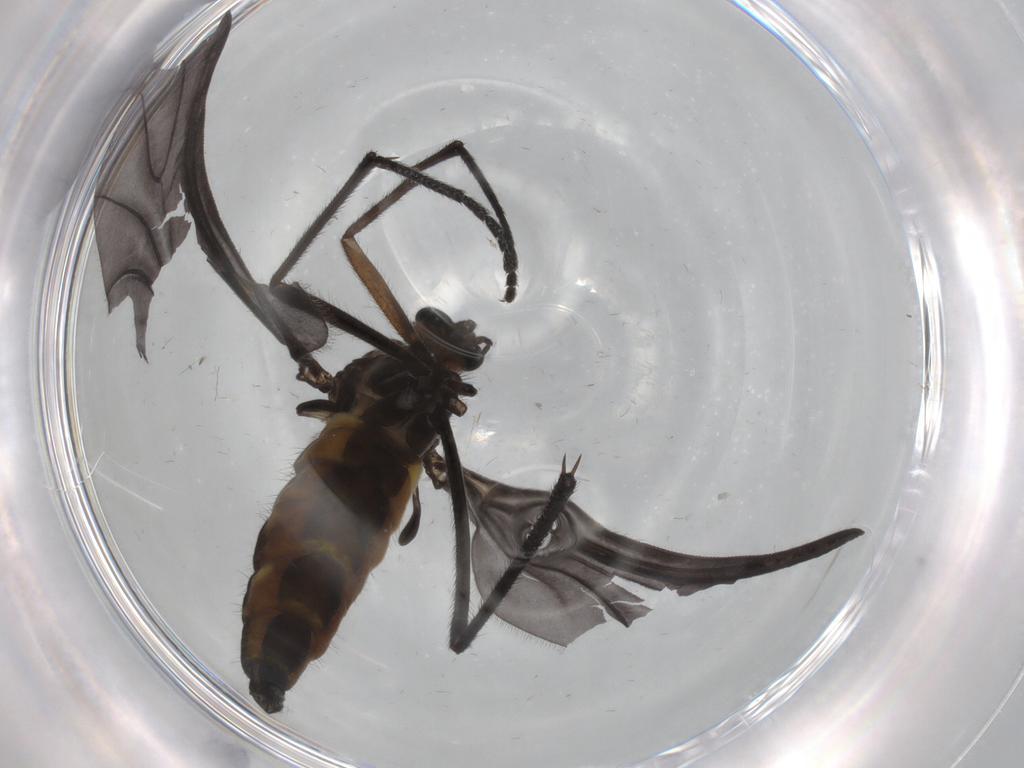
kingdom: Animalia
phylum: Arthropoda
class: Insecta
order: Diptera
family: Sciaridae
